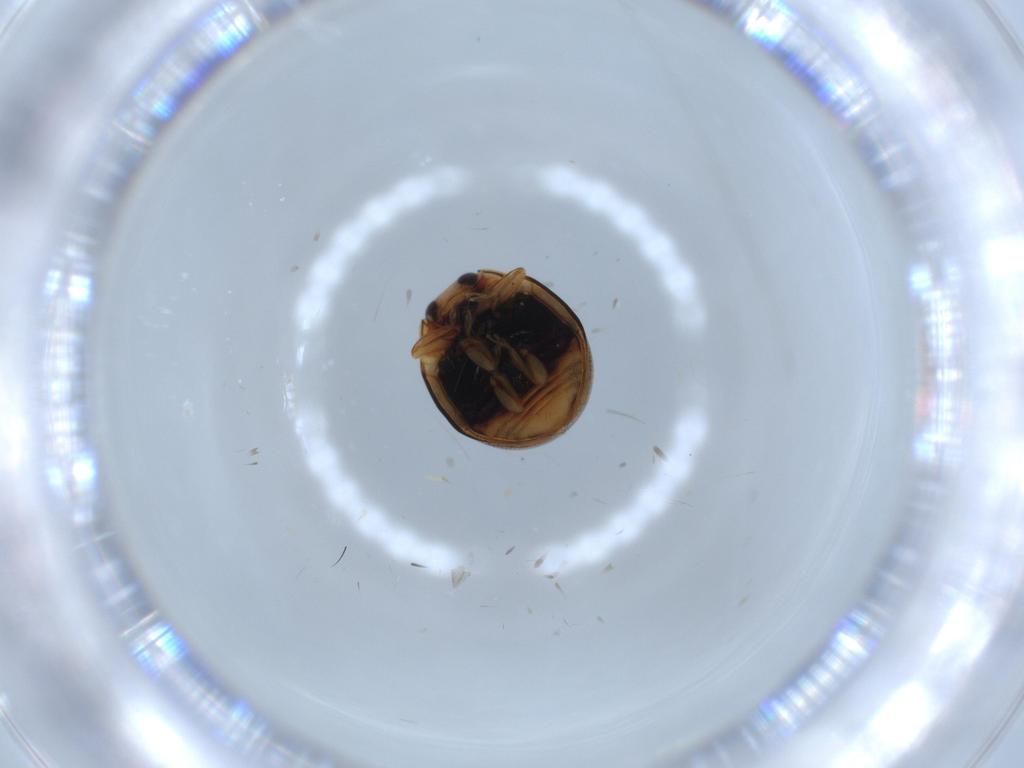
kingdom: Animalia
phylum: Arthropoda
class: Insecta
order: Coleoptera
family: Coccinellidae
